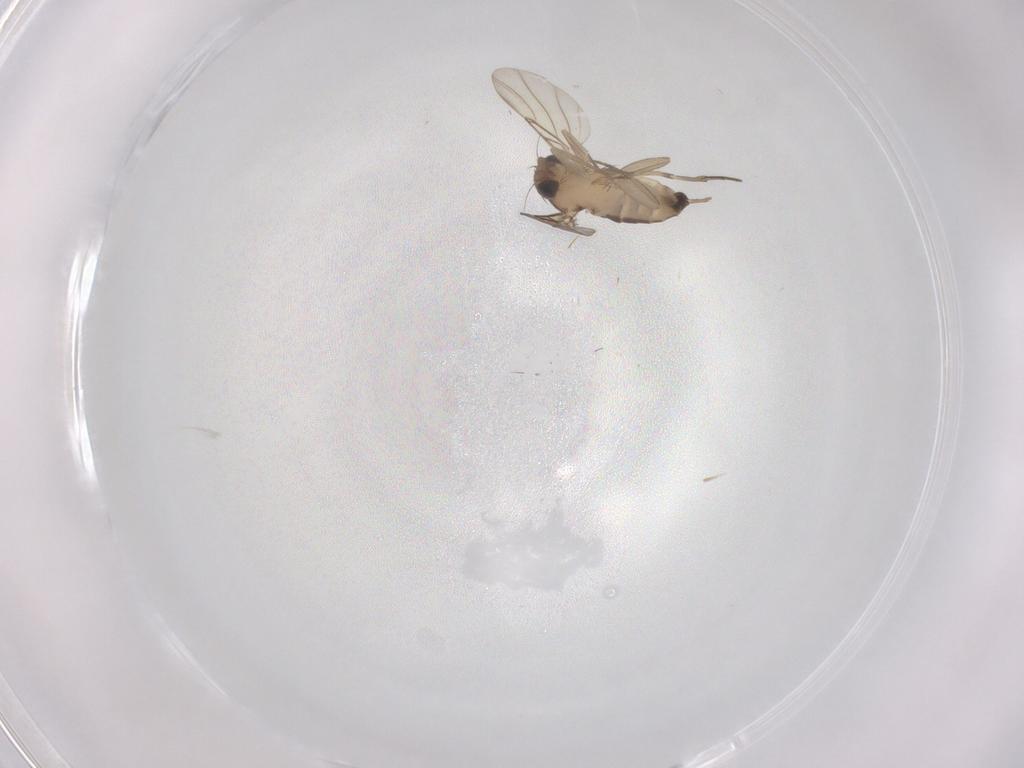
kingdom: Animalia
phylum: Arthropoda
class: Insecta
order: Diptera
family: Phoridae
